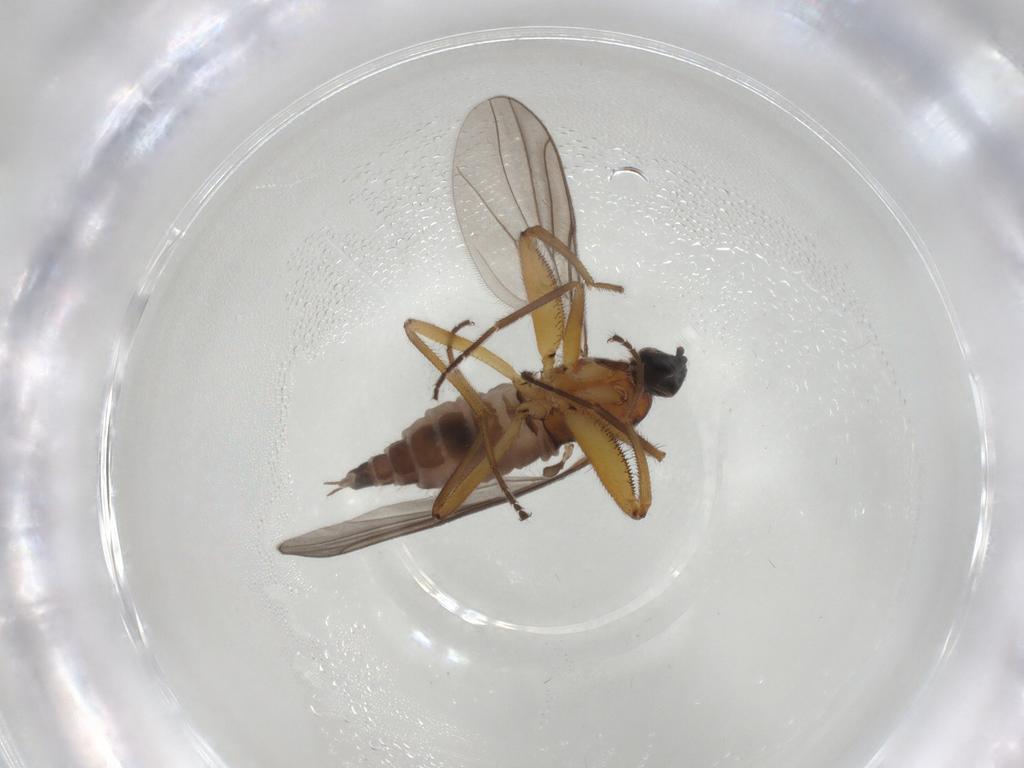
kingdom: Animalia
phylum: Arthropoda
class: Insecta
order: Diptera
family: Hybotidae
